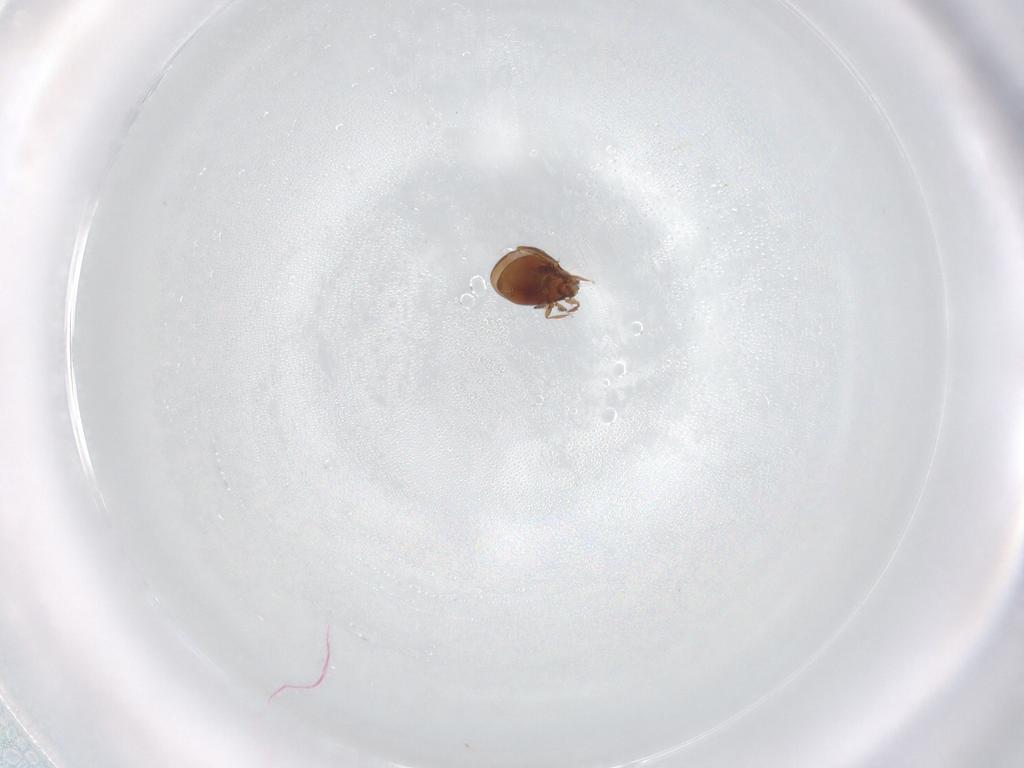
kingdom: Animalia
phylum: Arthropoda
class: Arachnida
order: Sarcoptiformes
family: Mochlozetidae
